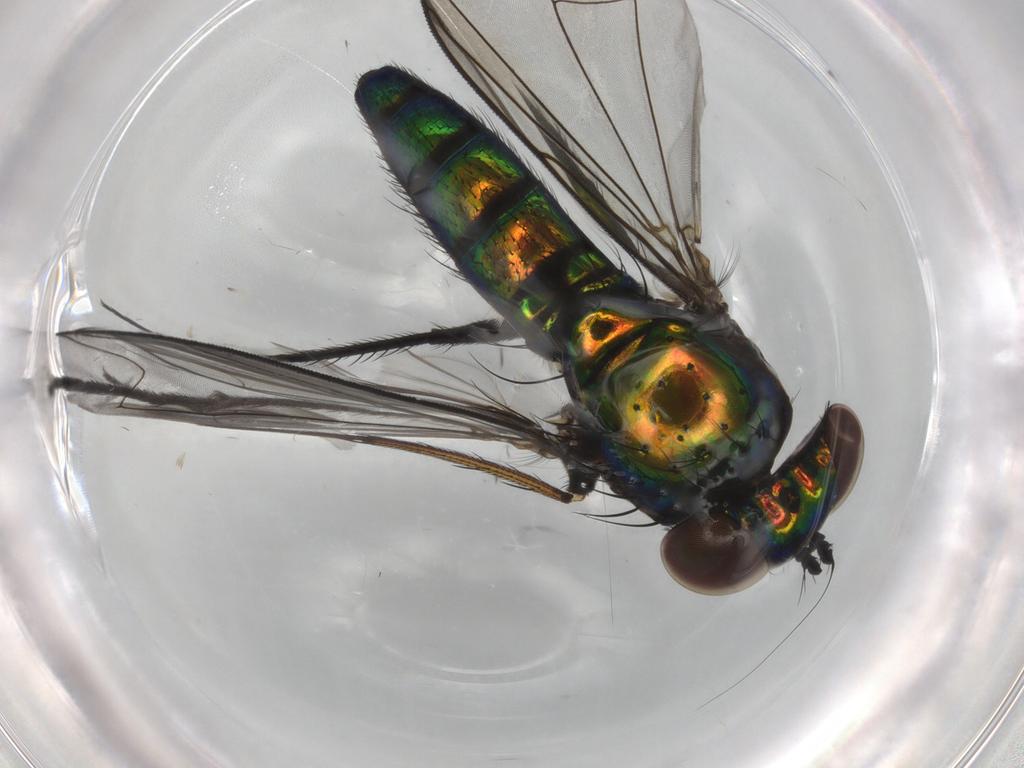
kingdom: Animalia
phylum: Arthropoda
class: Insecta
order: Diptera
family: Dolichopodidae
